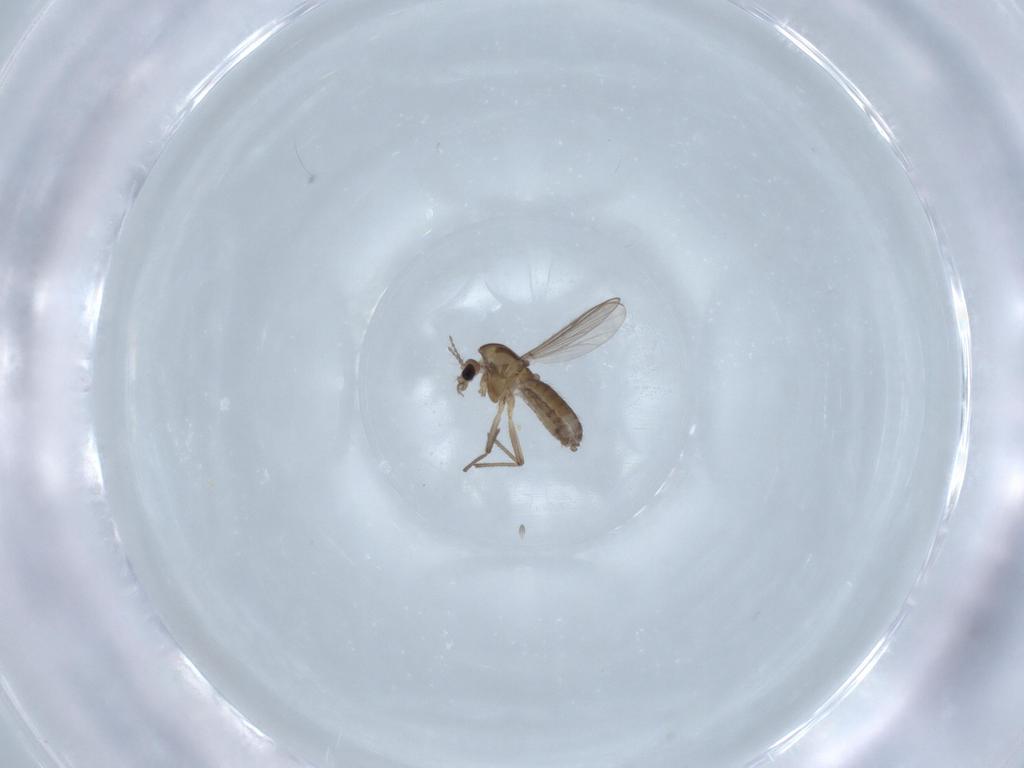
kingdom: Animalia
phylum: Arthropoda
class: Insecta
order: Diptera
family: Chironomidae
